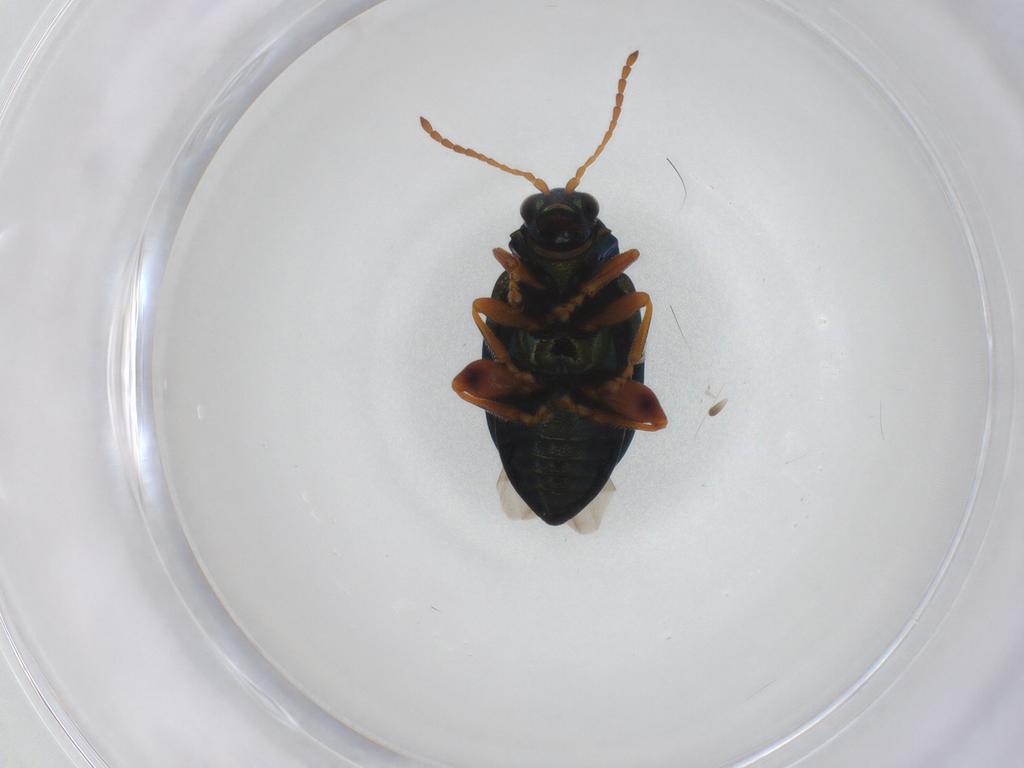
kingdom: Animalia
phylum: Arthropoda
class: Insecta
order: Coleoptera
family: Chrysomelidae
